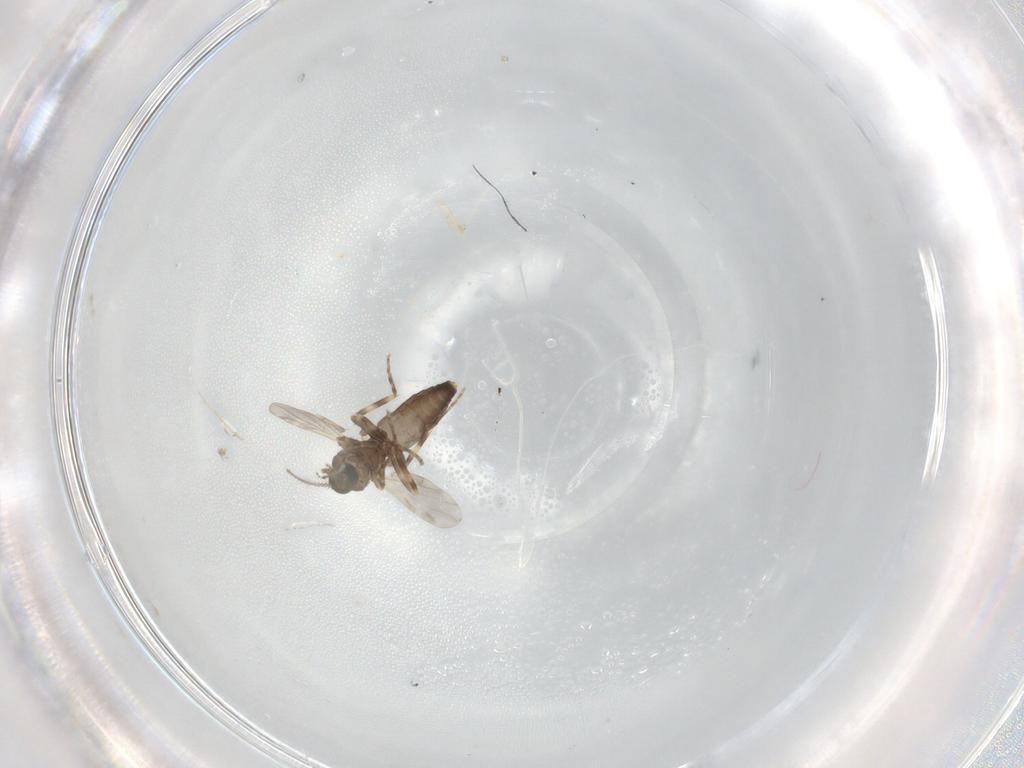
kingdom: Animalia
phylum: Arthropoda
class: Insecta
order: Diptera
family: Ceratopogonidae
